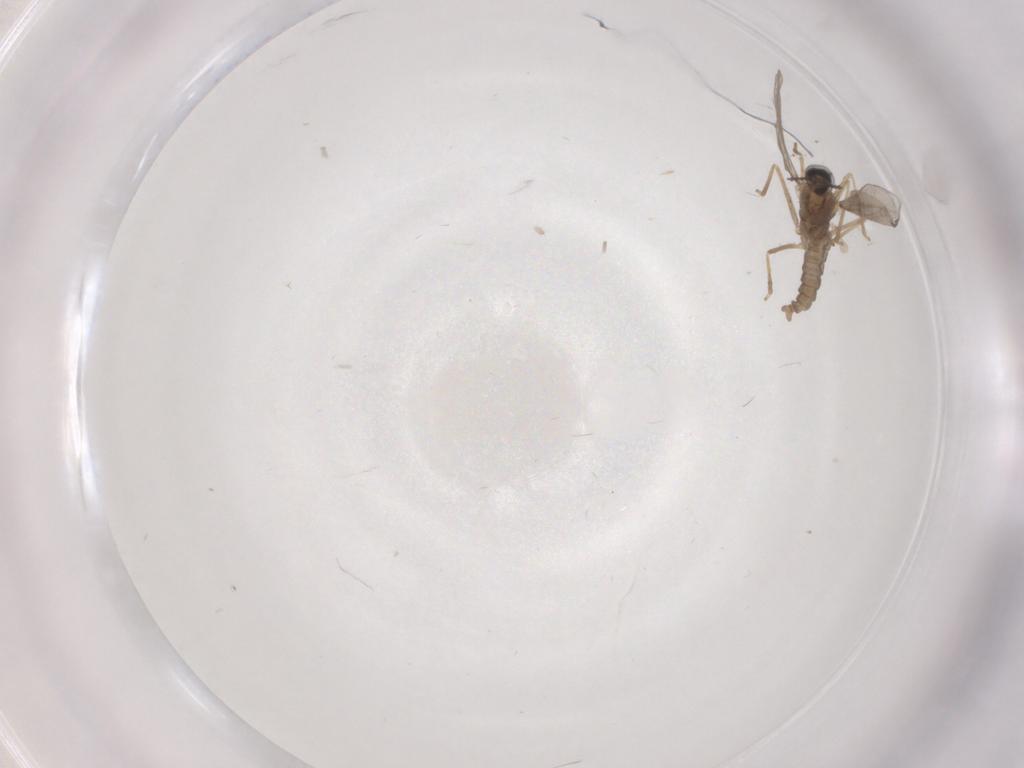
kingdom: Animalia
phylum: Arthropoda
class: Insecta
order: Diptera
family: Cecidomyiidae
